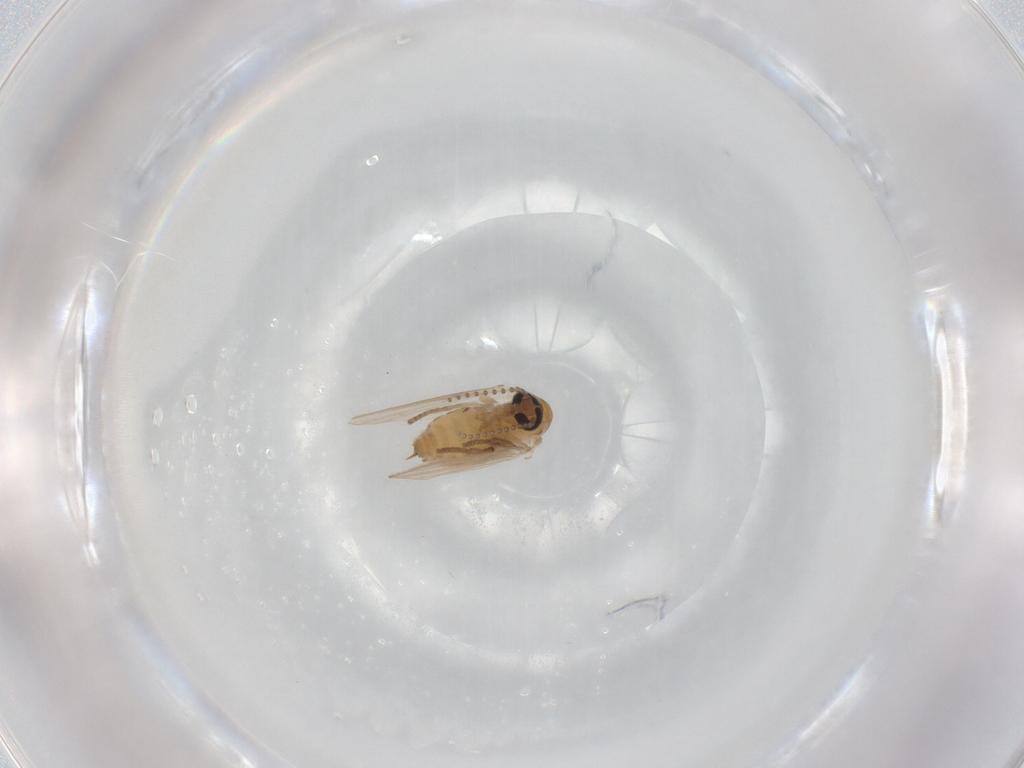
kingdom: Animalia
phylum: Arthropoda
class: Insecta
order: Diptera
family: Psychodidae
